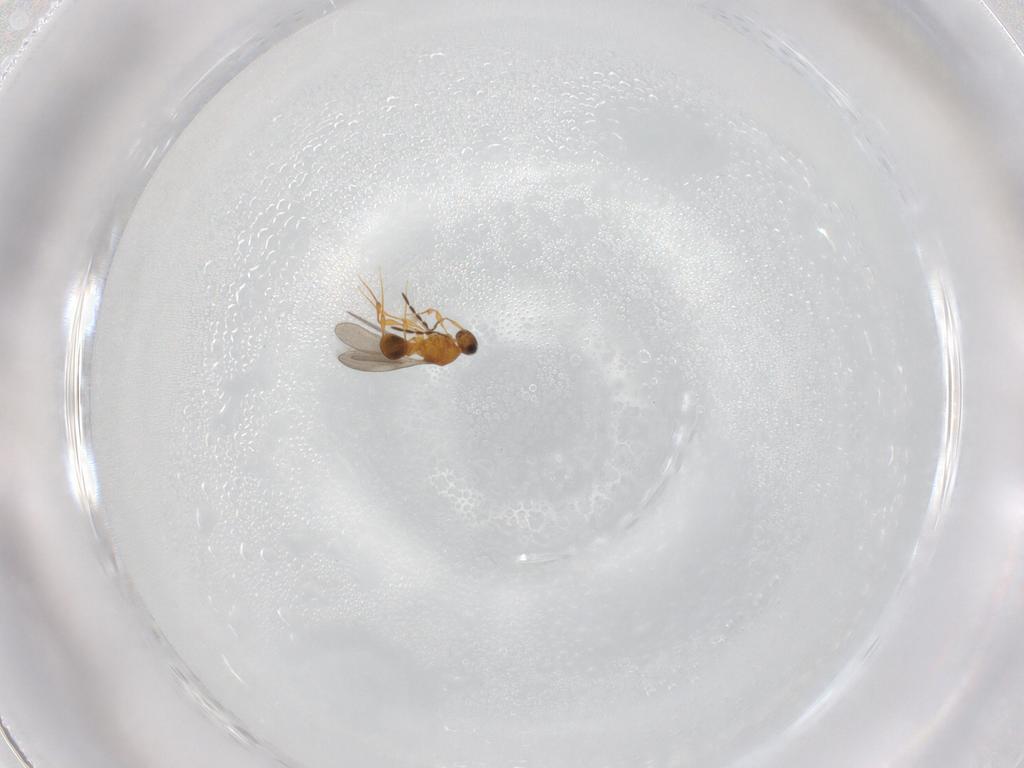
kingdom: Animalia
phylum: Arthropoda
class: Insecta
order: Hymenoptera
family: Platygastridae
